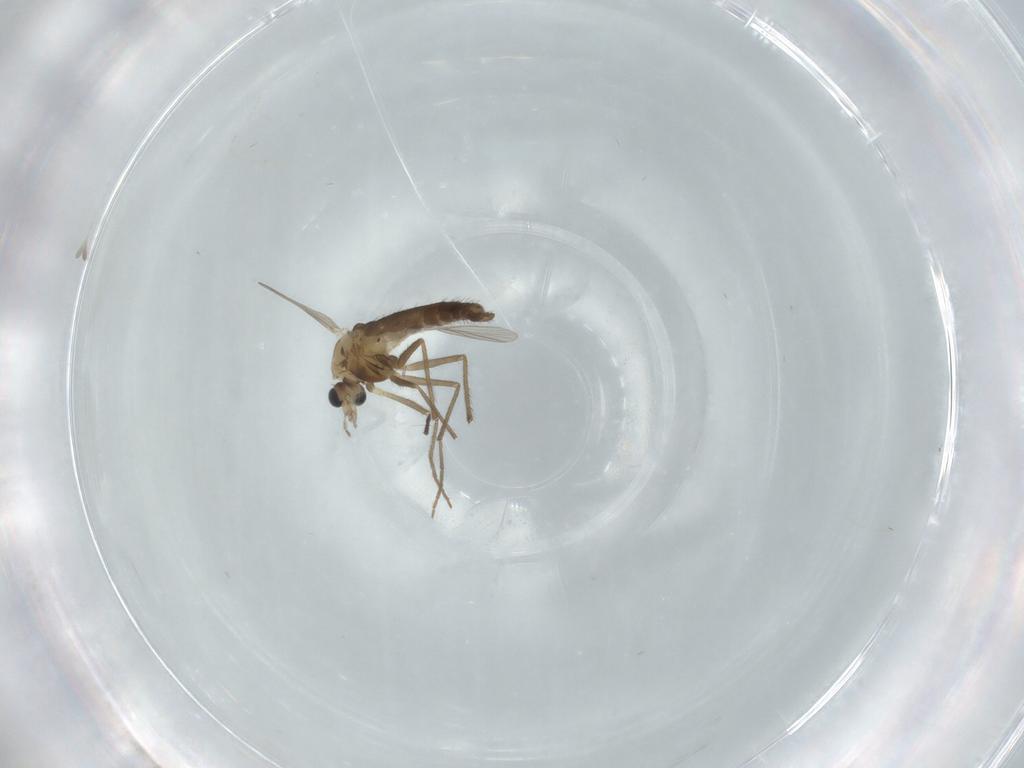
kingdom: Animalia
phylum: Arthropoda
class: Insecta
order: Diptera
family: Chironomidae
